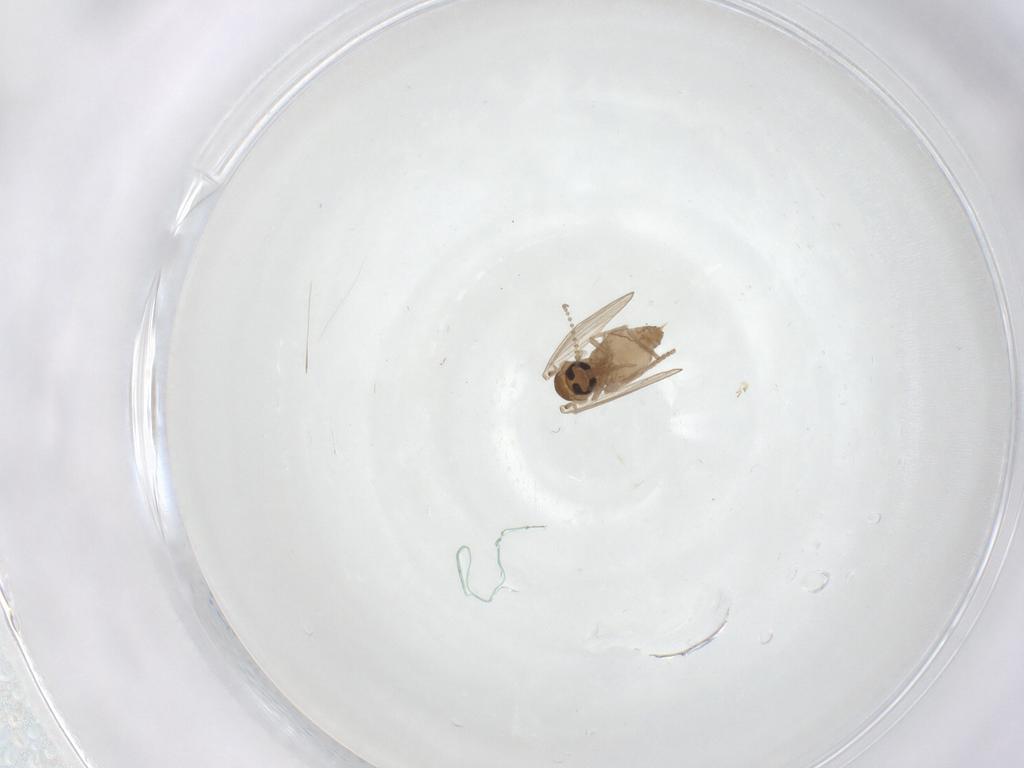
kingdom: Animalia
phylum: Arthropoda
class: Insecta
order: Diptera
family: Psychodidae
